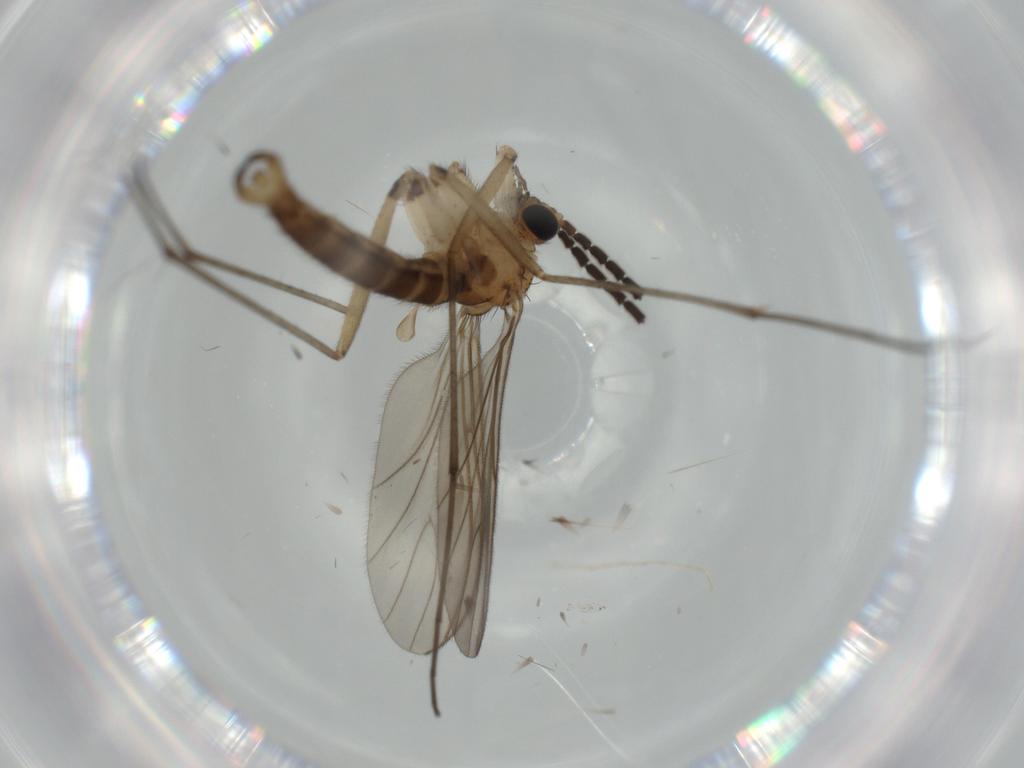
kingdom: Animalia
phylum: Arthropoda
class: Insecta
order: Diptera
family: Sciaridae
